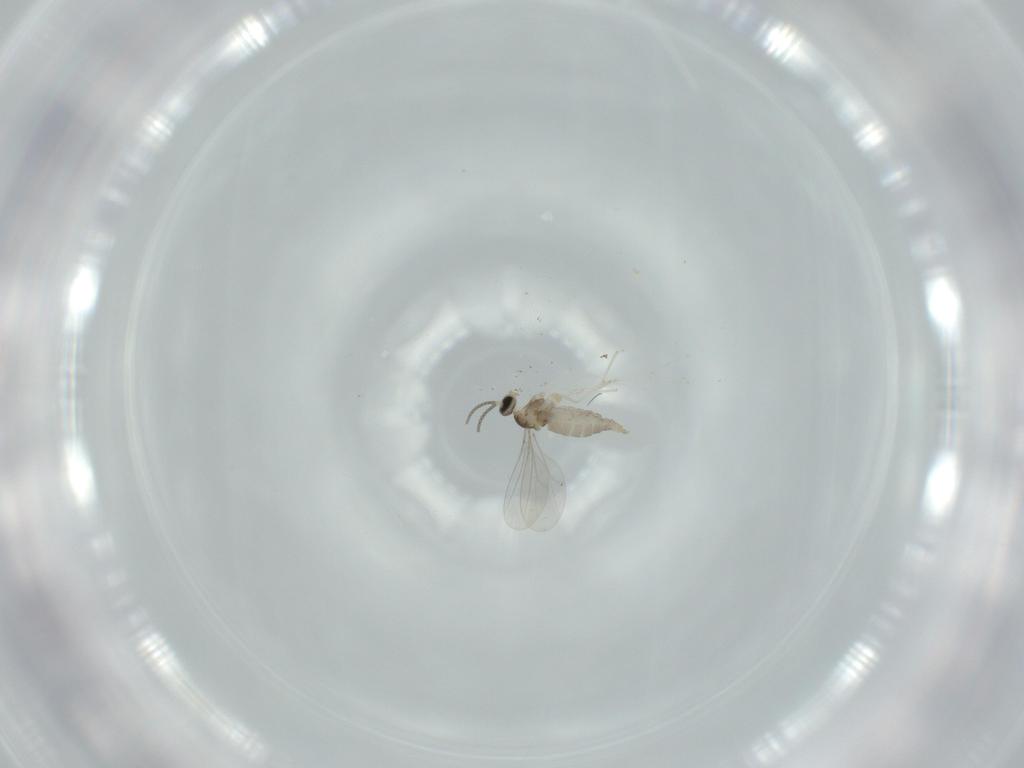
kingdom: Animalia
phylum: Arthropoda
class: Insecta
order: Diptera
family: Cecidomyiidae
